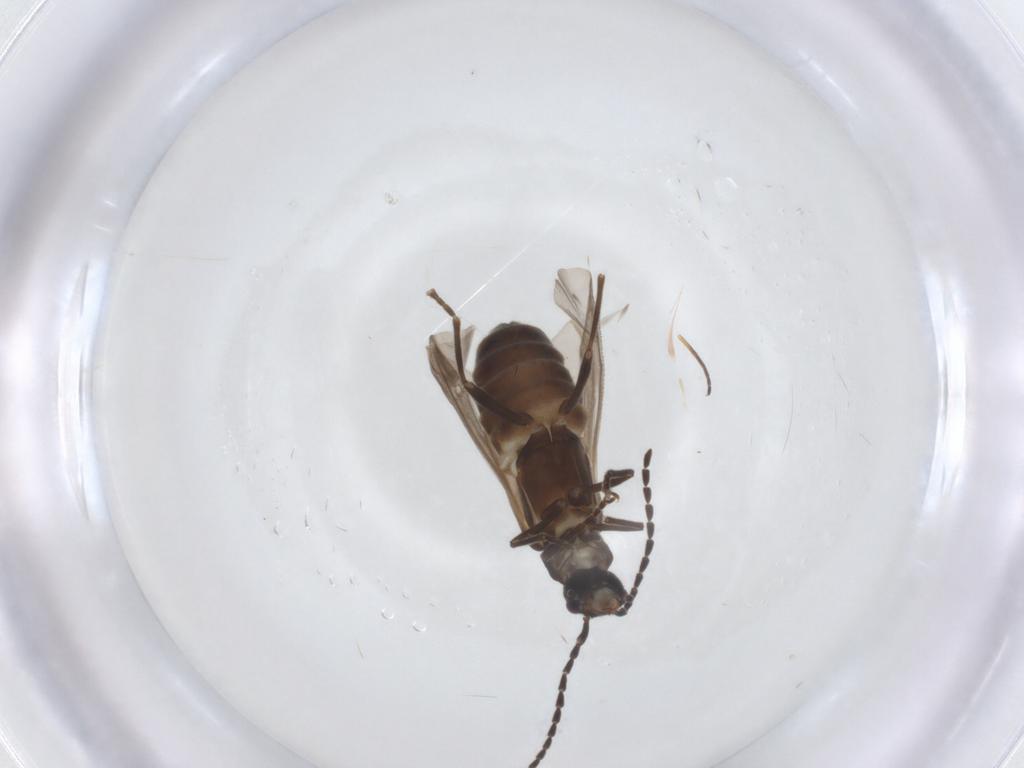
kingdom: Animalia
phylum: Arthropoda
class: Insecta
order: Coleoptera
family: Cantharidae
